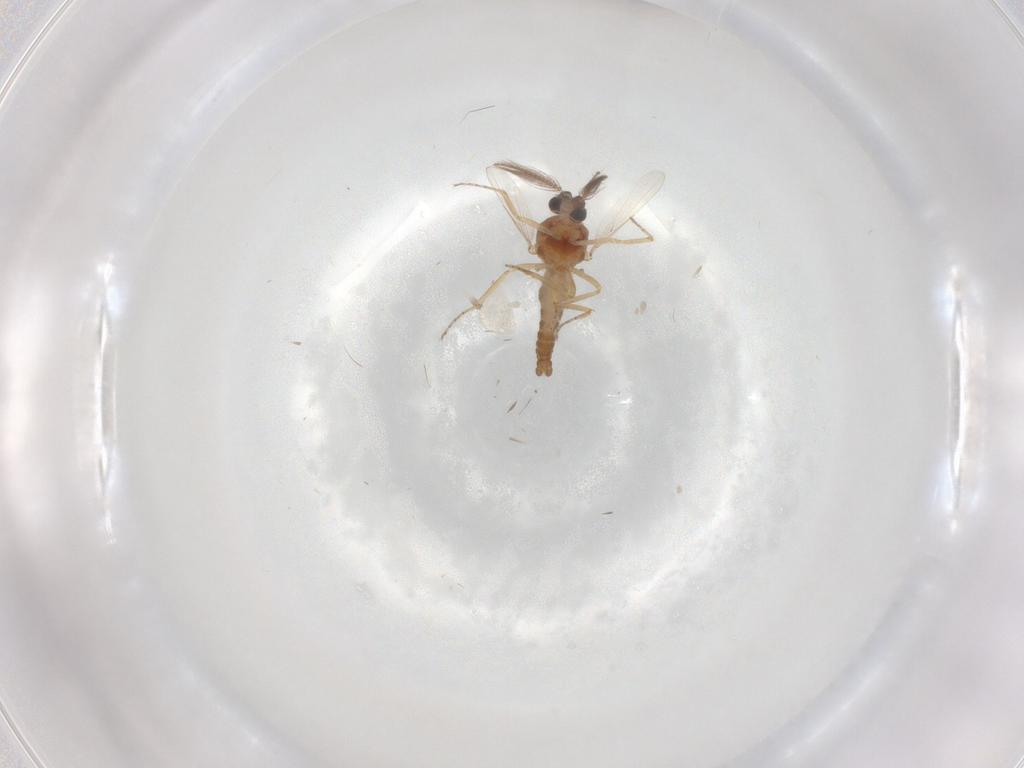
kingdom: Animalia
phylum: Arthropoda
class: Insecta
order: Diptera
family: Ceratopogonidae
